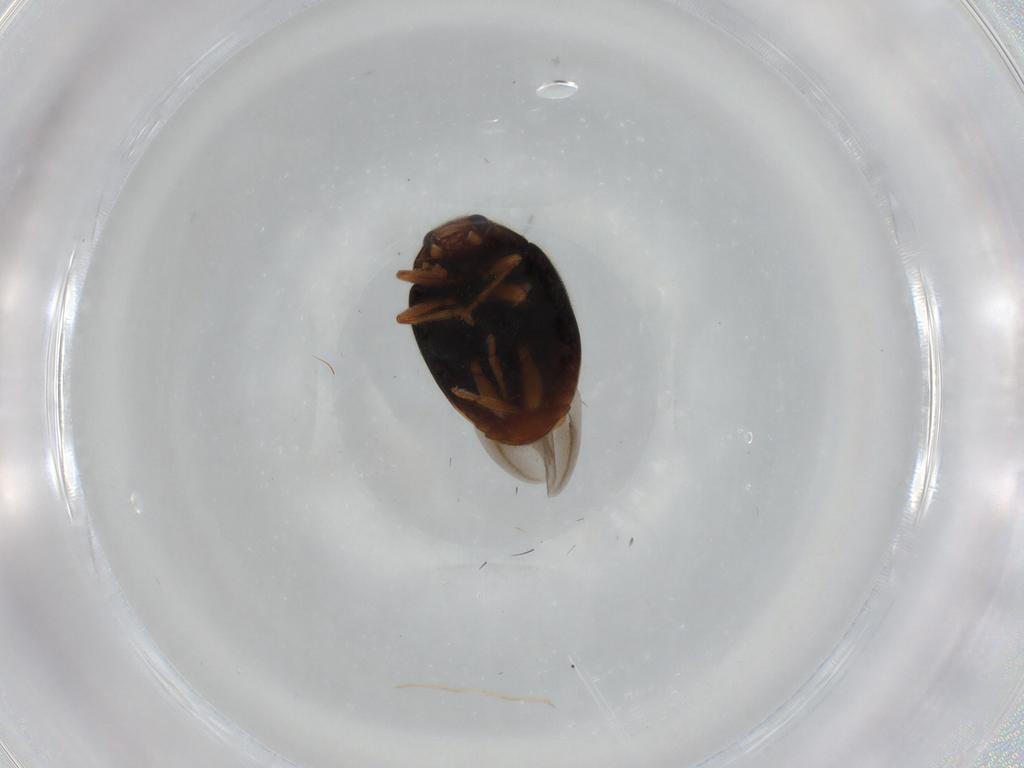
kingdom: Animalia
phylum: Arthropoda
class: Insecta
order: Coleoptera
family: Coccinellidae
